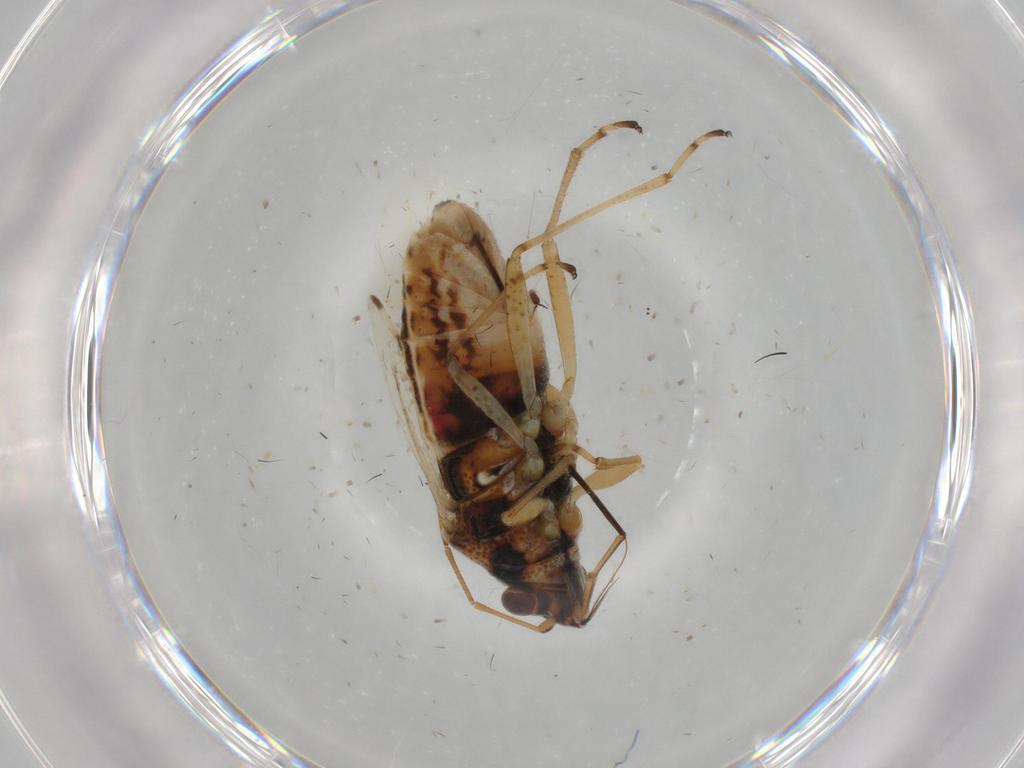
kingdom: Animalia
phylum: Arthropoda
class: Insecta
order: Hemiptera
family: Lygaeidae
